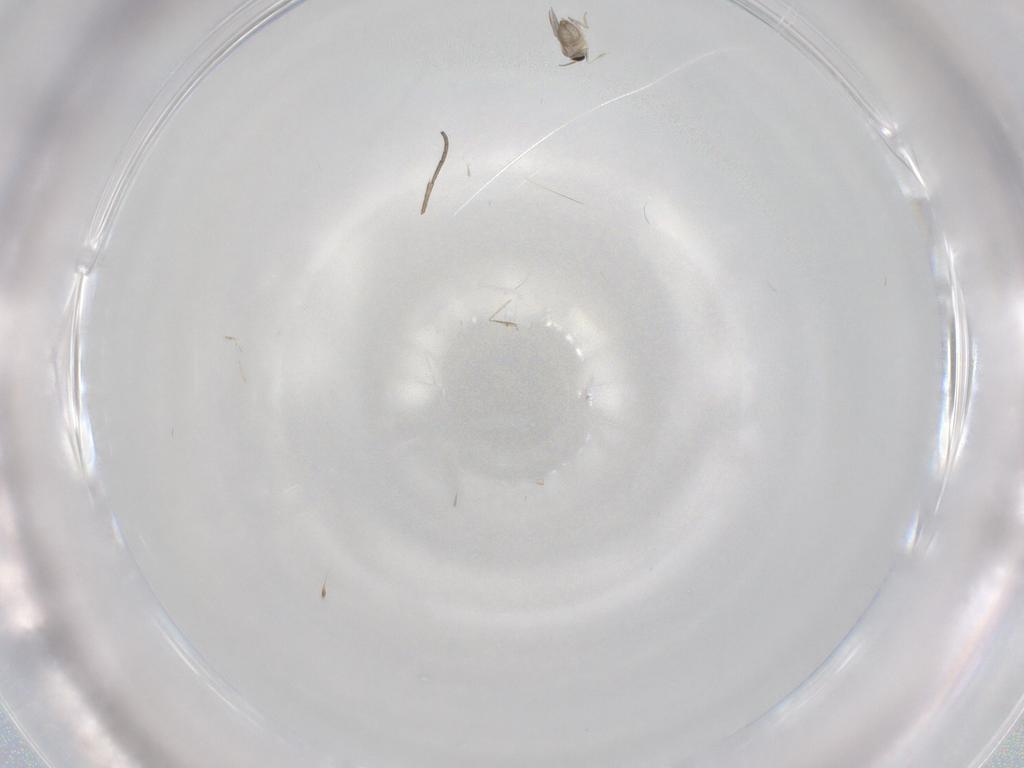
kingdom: Animalia
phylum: Arthropoda
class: Insecta
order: Diptera
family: Sciaridae
